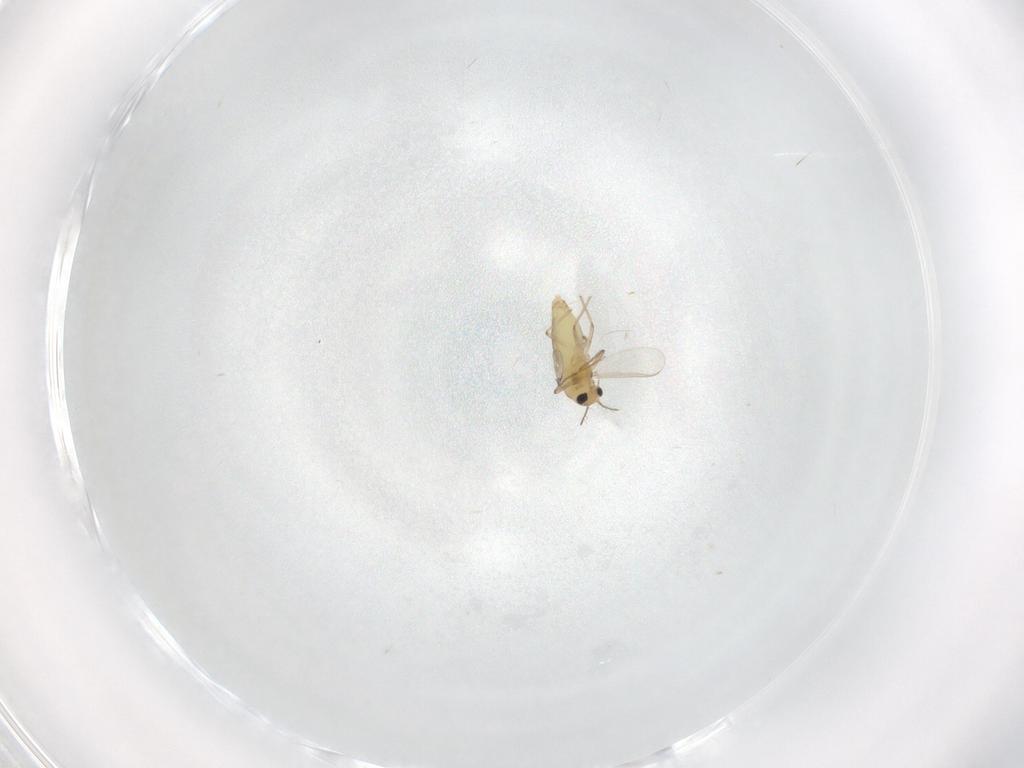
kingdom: Animalia
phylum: Arthropoda
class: Insecta
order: Diptera
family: Chironomidae
